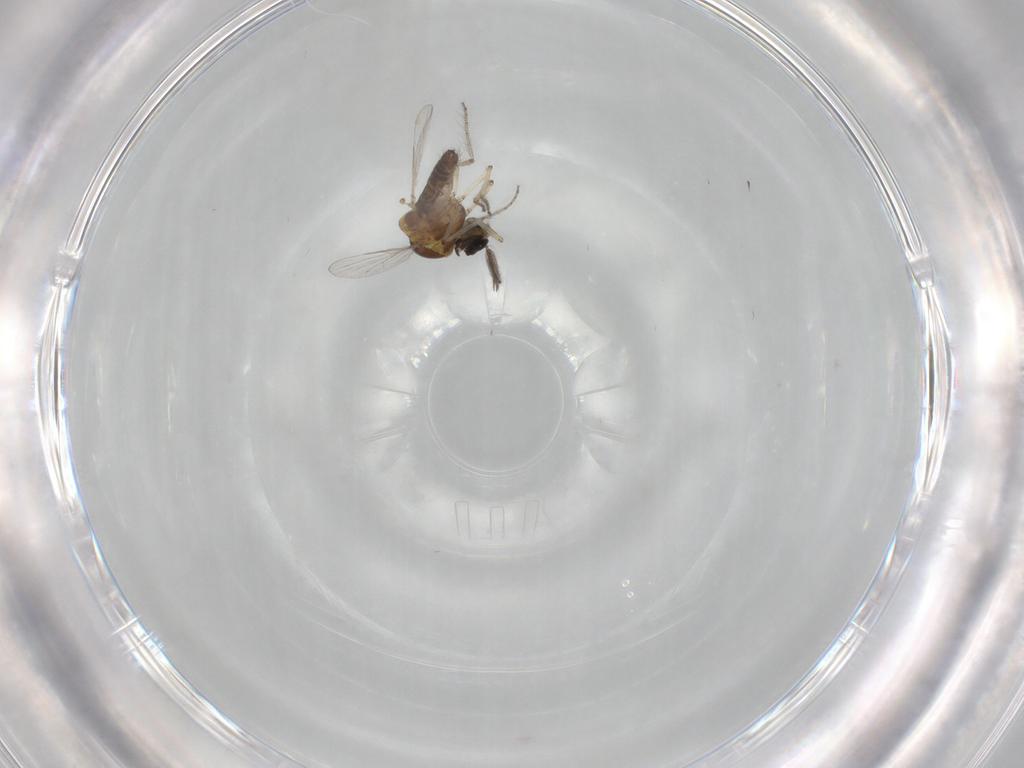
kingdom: Animalia
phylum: Arthropoda
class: Insecta
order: Diptera
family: Ceratopogonidae
